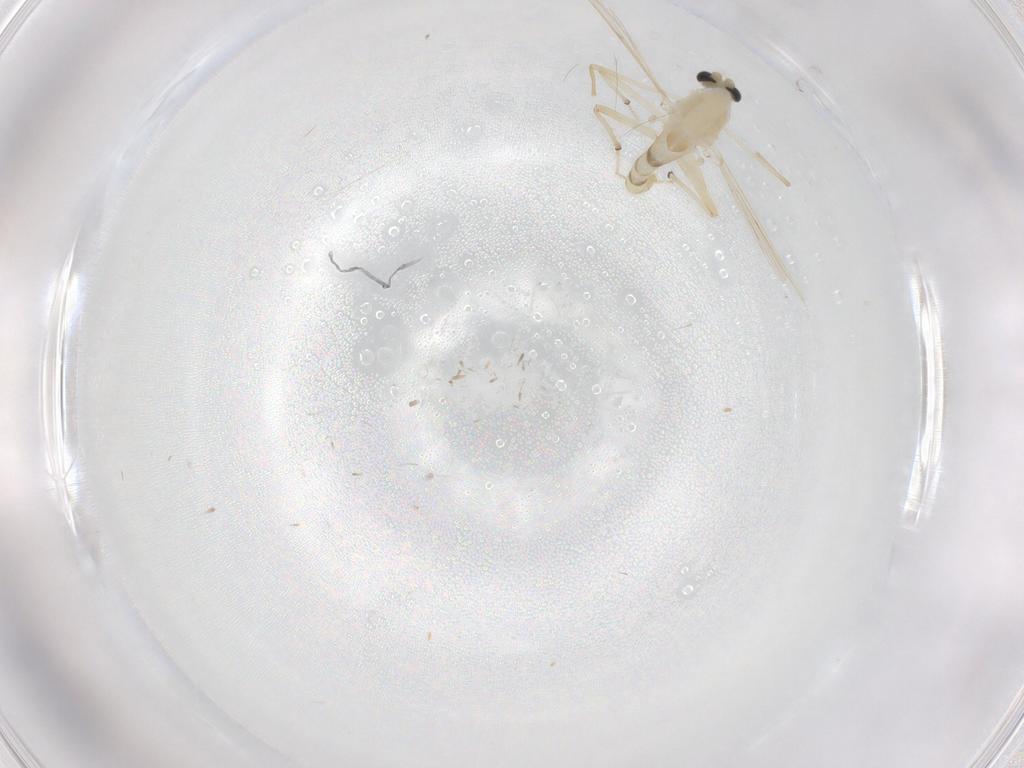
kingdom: Animalia
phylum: Arthropoda
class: Insecta
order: Diptera
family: Chironomidae
